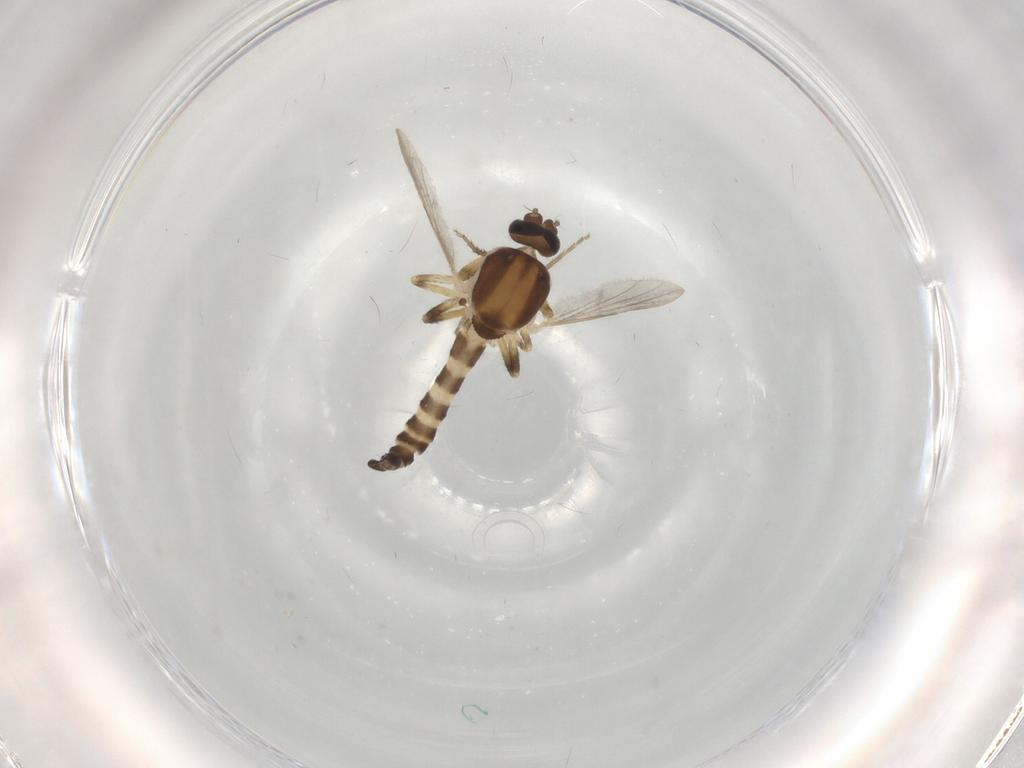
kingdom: Animalia
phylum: Arthropoda
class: Insecta
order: Diptera
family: Ceratopogonidae
